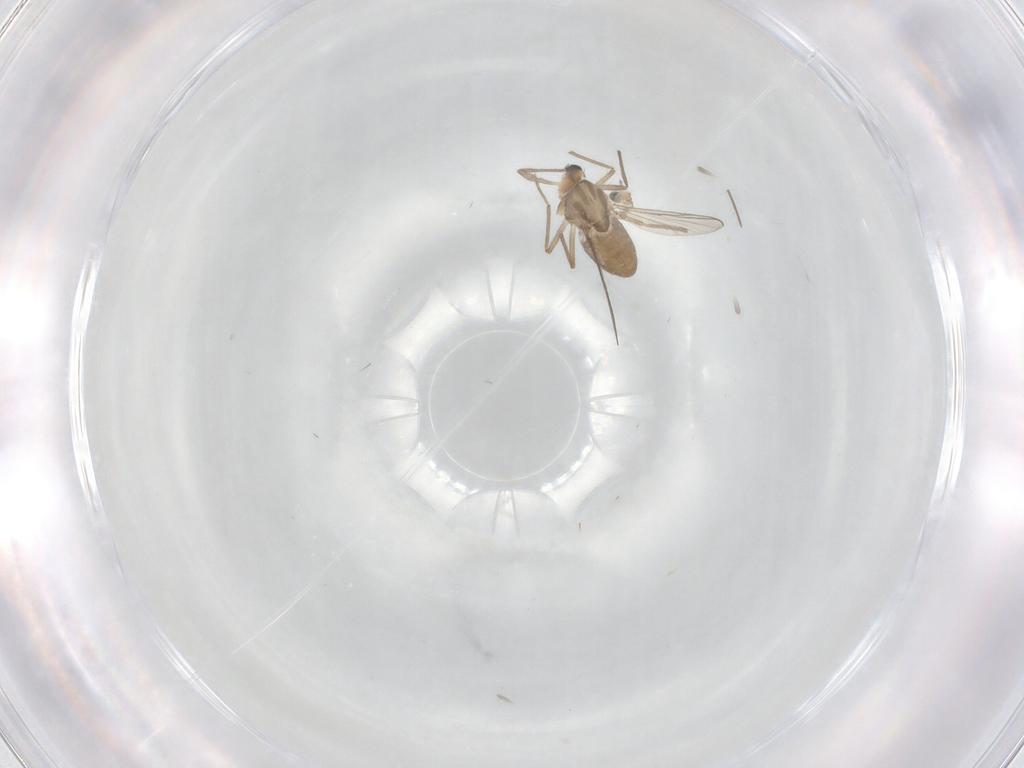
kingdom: Animalia
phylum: Arthropoda
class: Insecta
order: Diptera
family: Chironomidae
